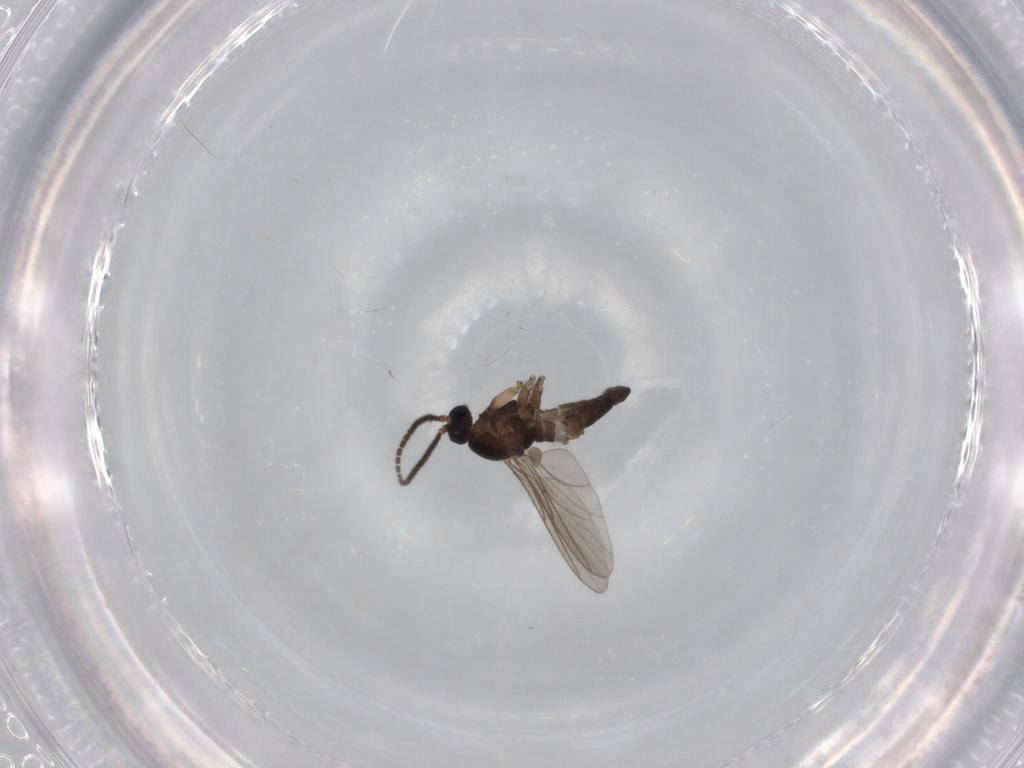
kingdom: Animalia
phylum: Arthropoda
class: Insecta
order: Diptera
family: Sciaridae
